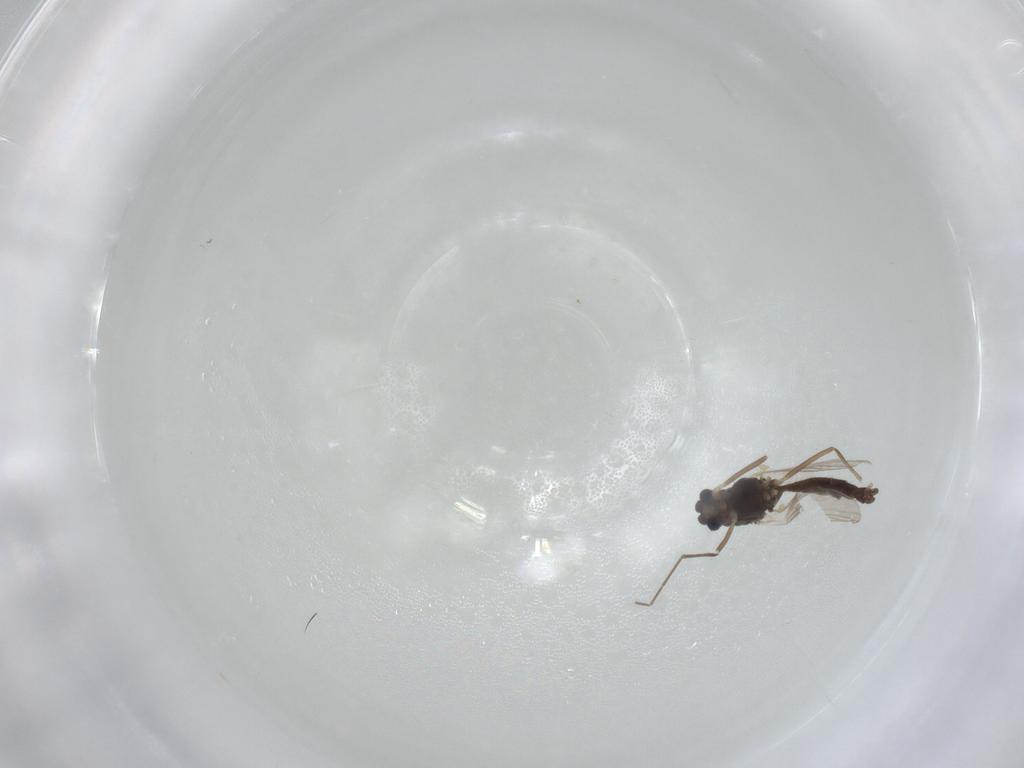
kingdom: Animalia
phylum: Arthropoda
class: Insecta
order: Diptera
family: Chironomidae
